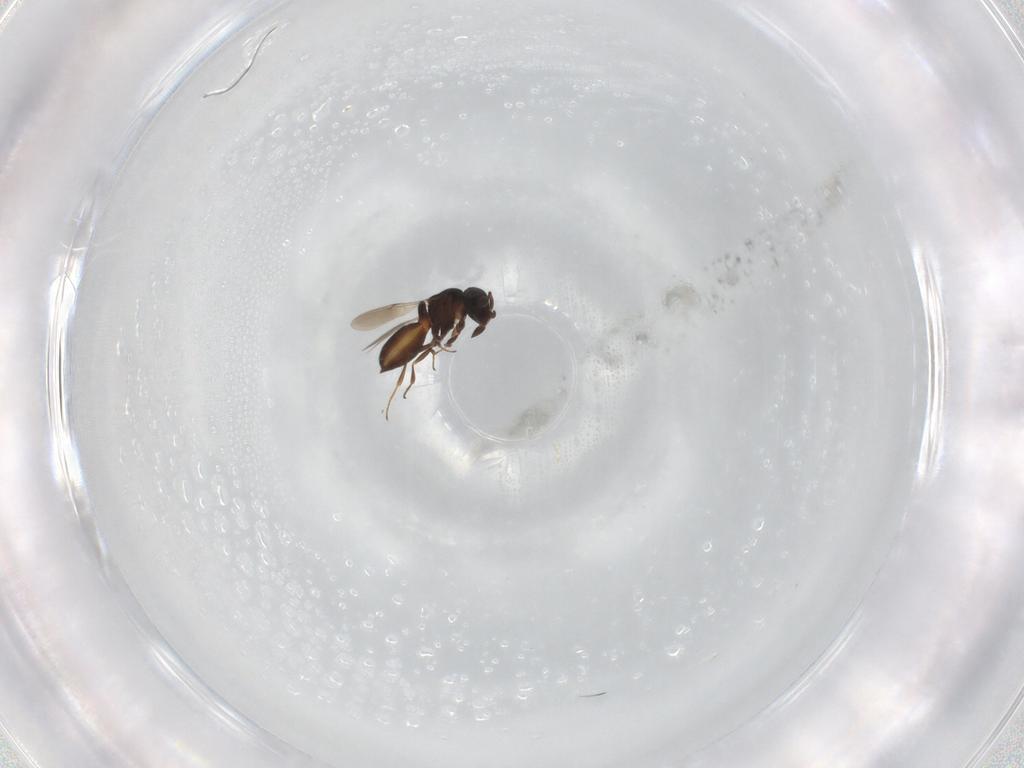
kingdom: Animalia
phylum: Arthropoda
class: Insecta
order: Hymenoptera
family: Scelionidae
